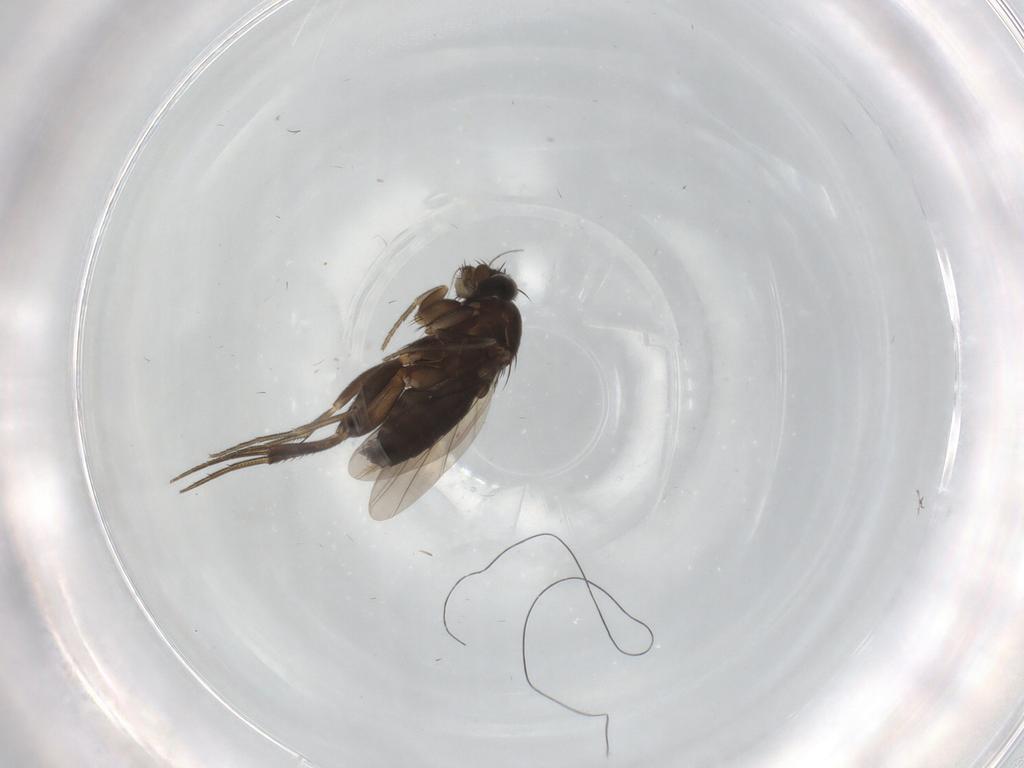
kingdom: Animalia
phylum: Arthropoda
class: Insecta
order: Diptera
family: Phoridae
